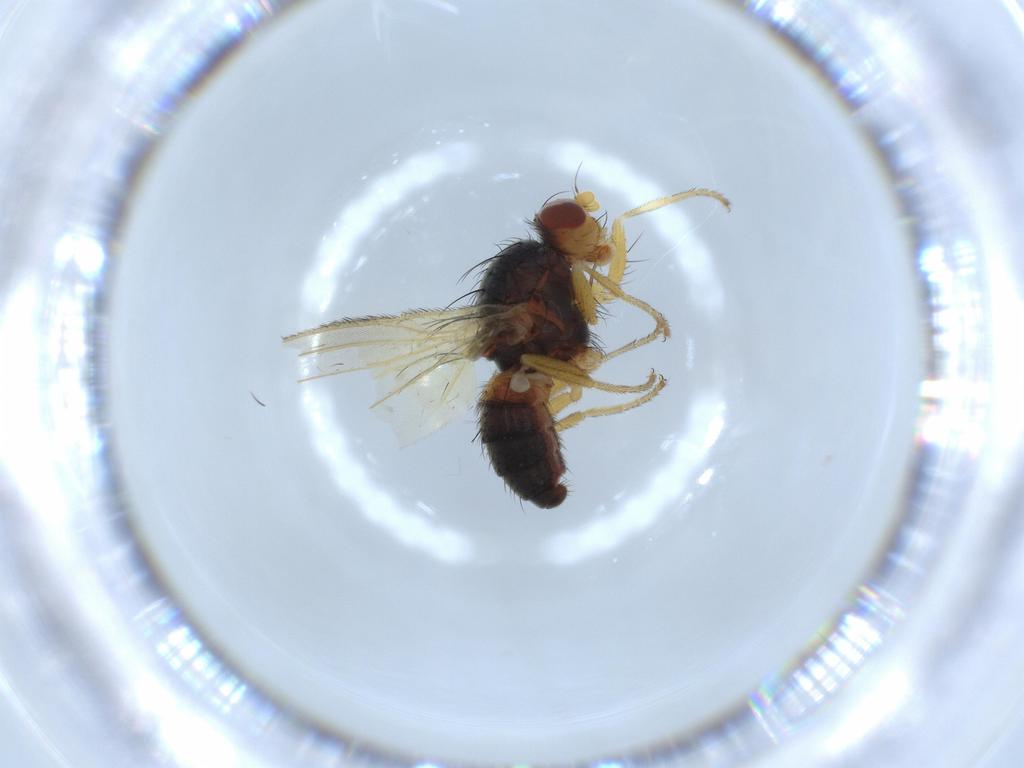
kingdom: Animalia
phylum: Arthropoda
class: Insecta
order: Diptera
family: Heleomyzidae
